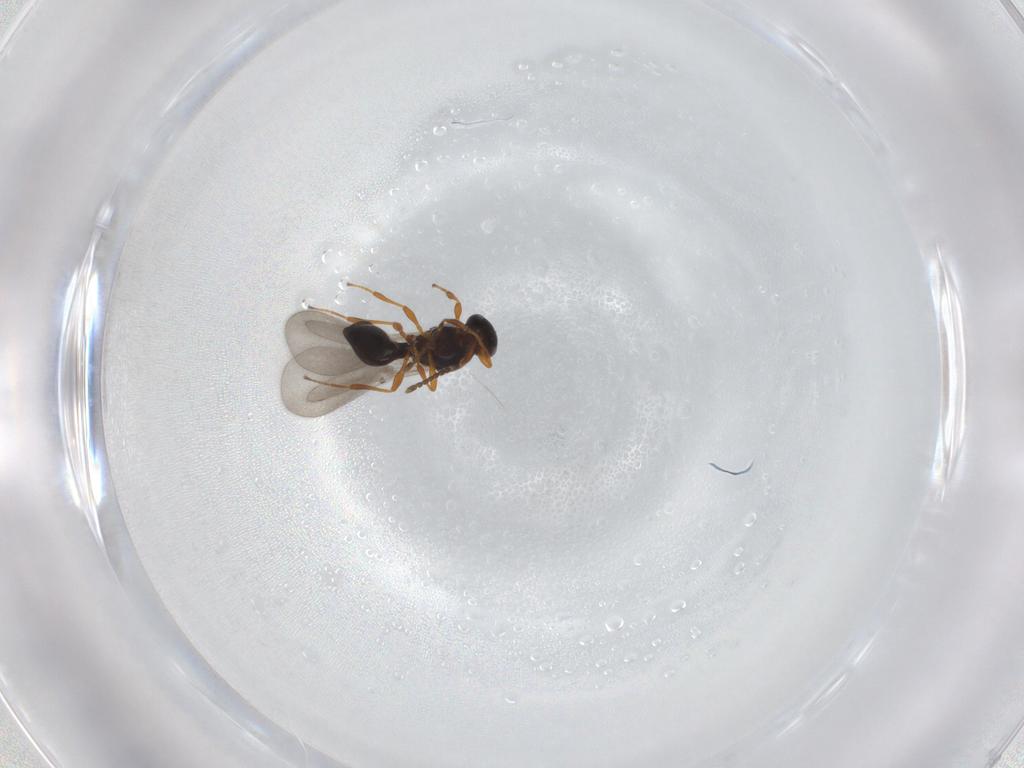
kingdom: Animalia
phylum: Arthropoda
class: Insecta
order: Hymenoptera
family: Platygastridae
